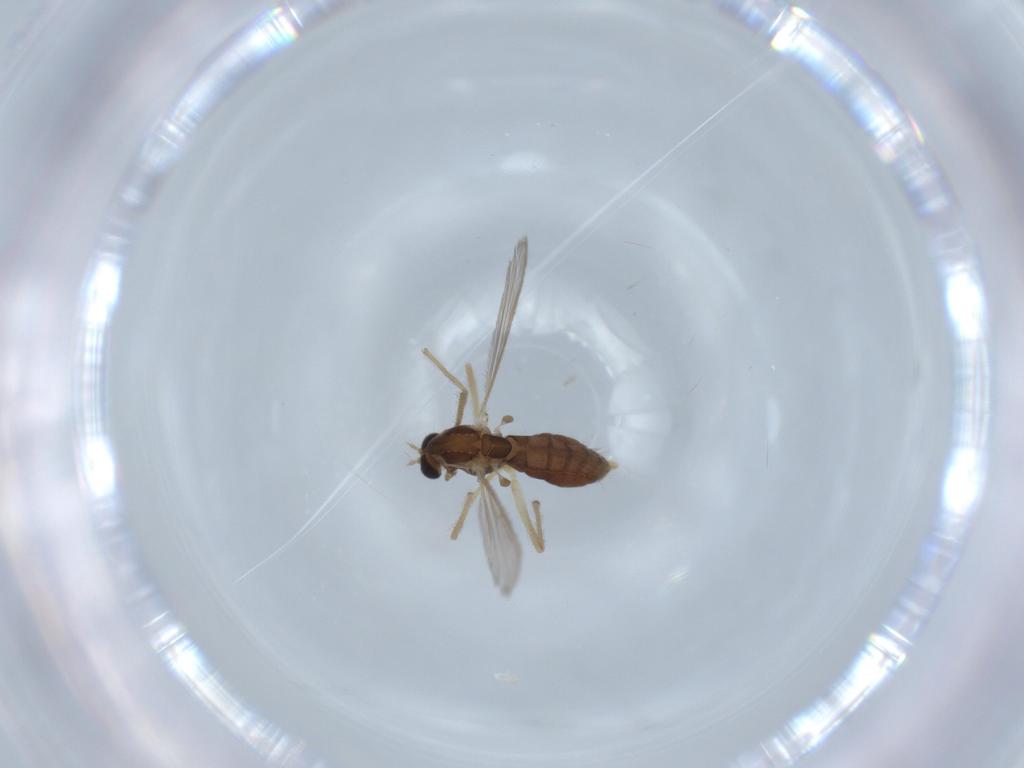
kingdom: Animalia
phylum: Arthropoda
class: Insecta
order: Diptera
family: Chironomidae
